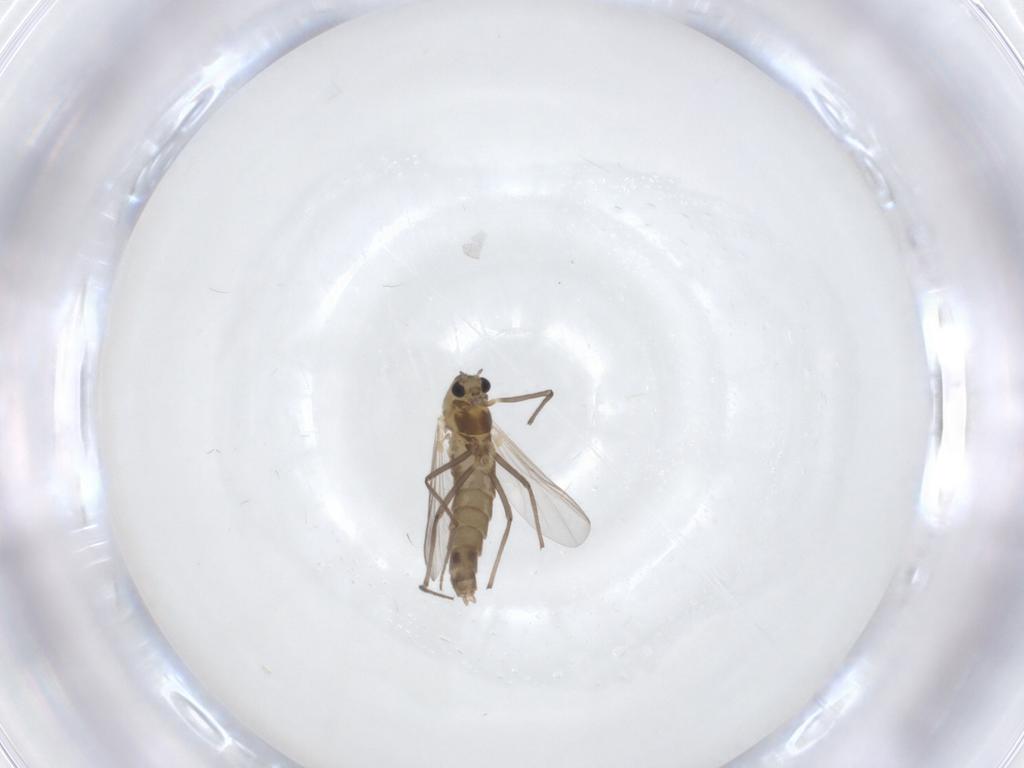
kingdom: Animalia
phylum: Arthropoda
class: Insecta
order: Diptera
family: Chironomidae
